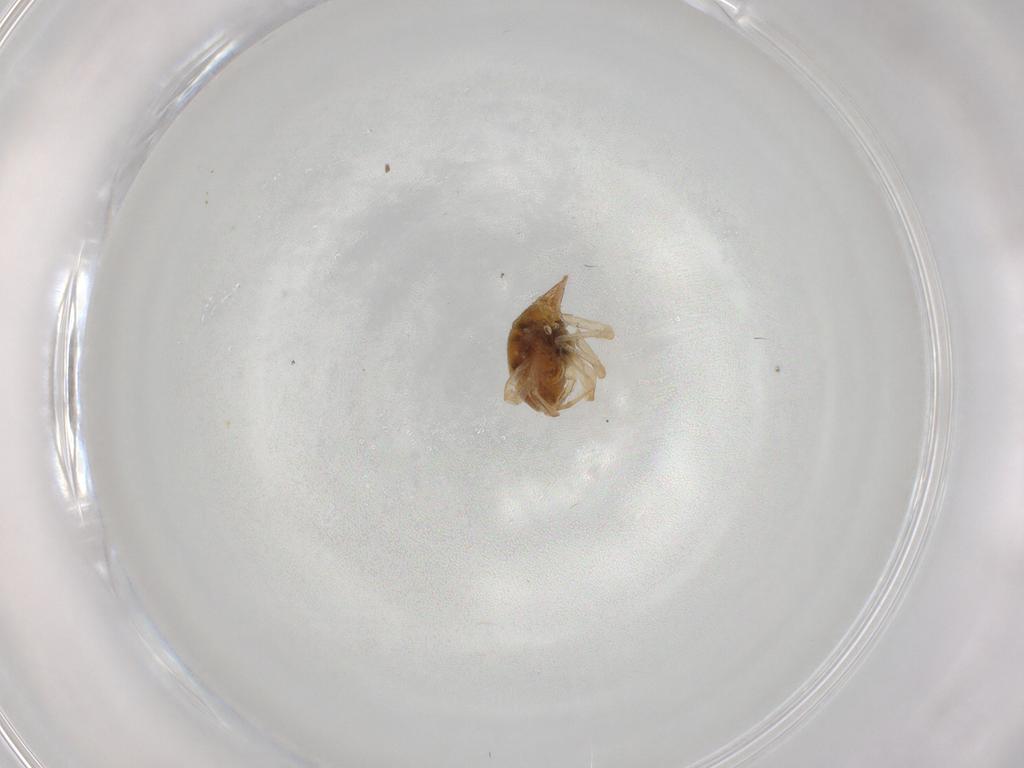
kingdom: Animalia
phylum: Arthropoda
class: Arachnida
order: Trombidiformes
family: Bdellidae
